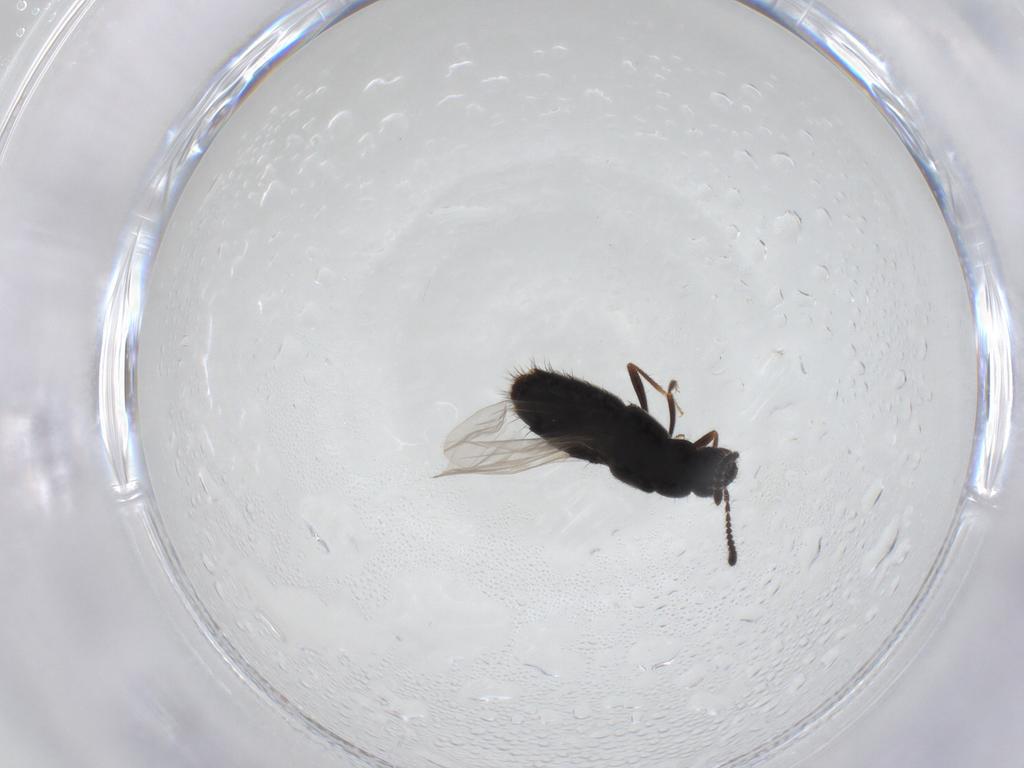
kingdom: Animalia
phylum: Arthropoda
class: Insecta
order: Coleoptera
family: Staphylinidae
